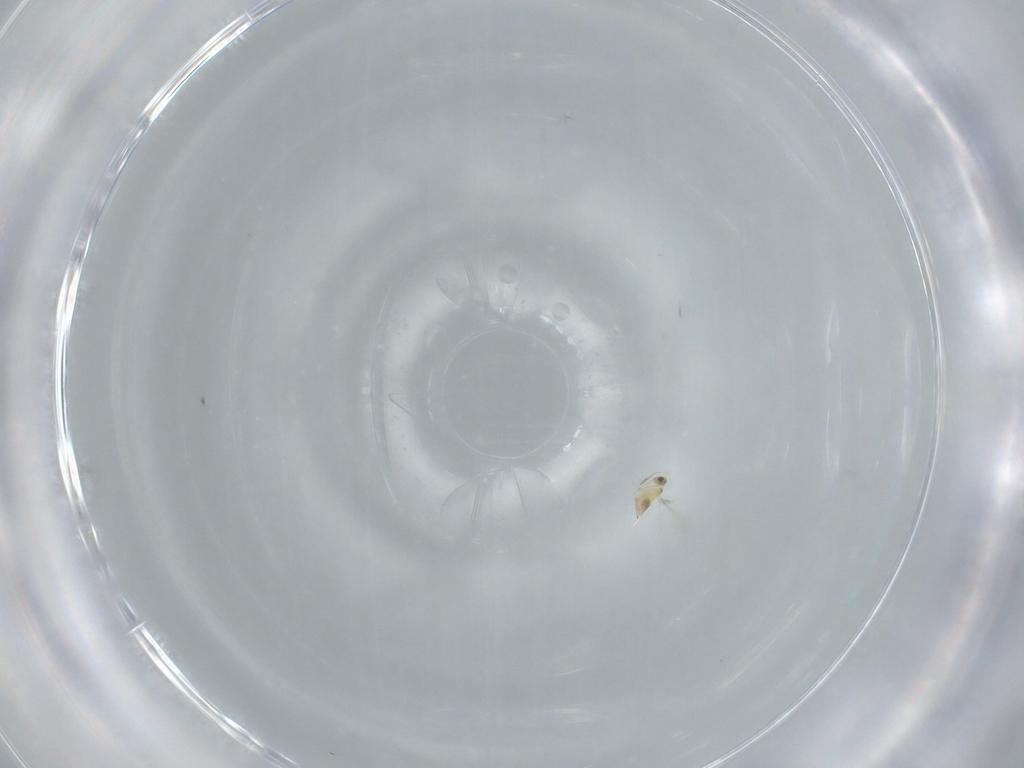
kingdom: Animalia
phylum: Arthropoda
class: Insecta
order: Hymenoptera
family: Mymaridae
